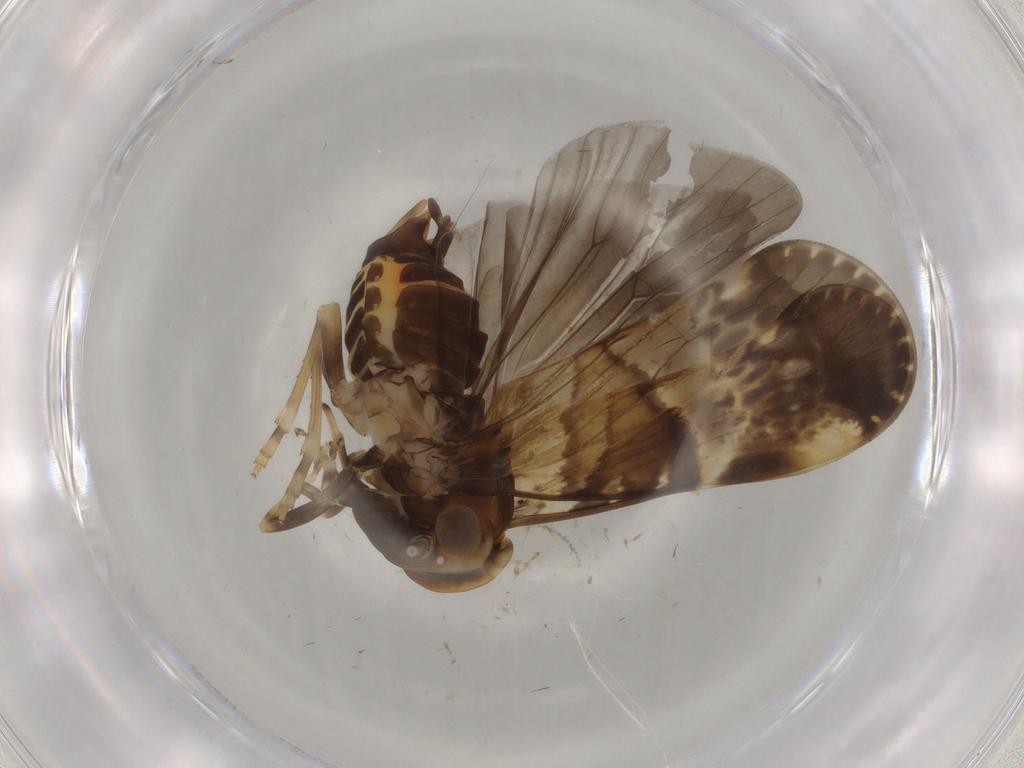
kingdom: Animalia
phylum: Arthropoda
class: Insecta
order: Hemiptera
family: Cixiidae
